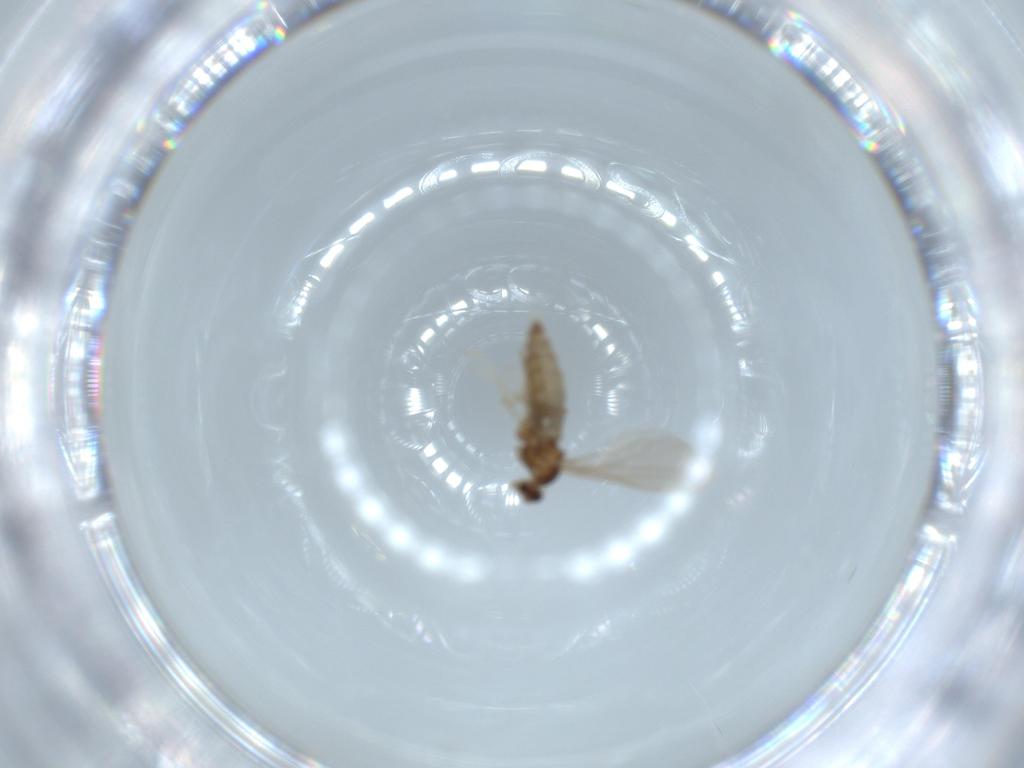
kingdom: Animalia
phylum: Arthropoda
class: Insecta
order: Diptera
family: Cecidomyiidae
